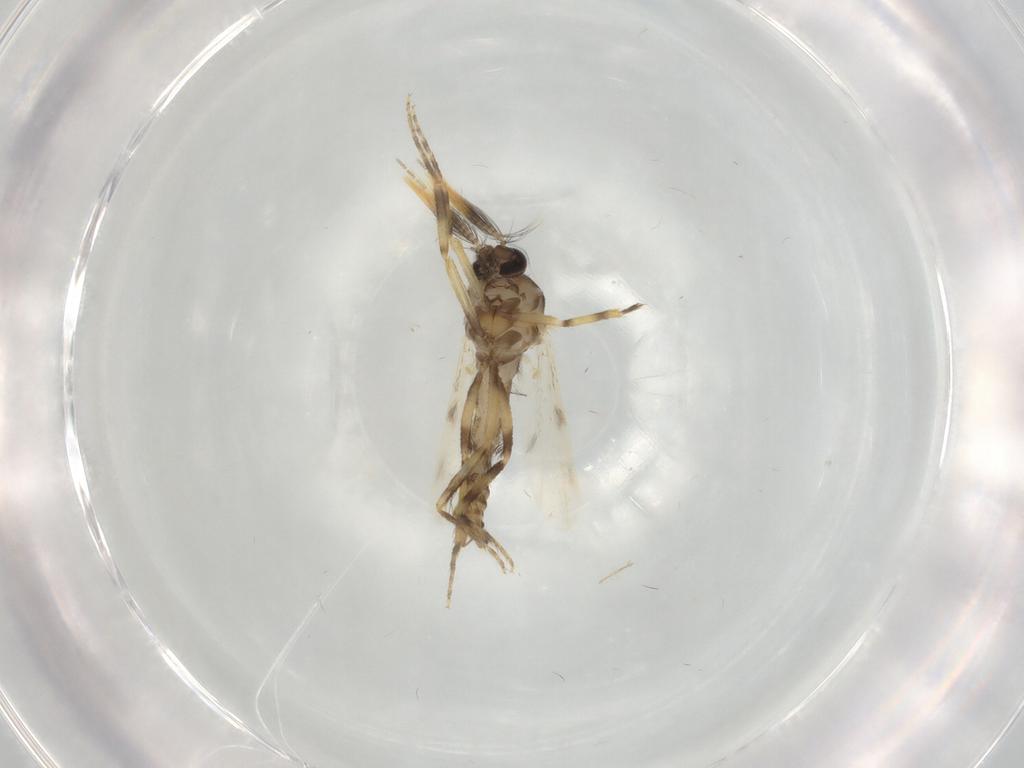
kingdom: Animalia
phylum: Arthropoda
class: Insecta
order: Diptera
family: Ceratopogonidae
